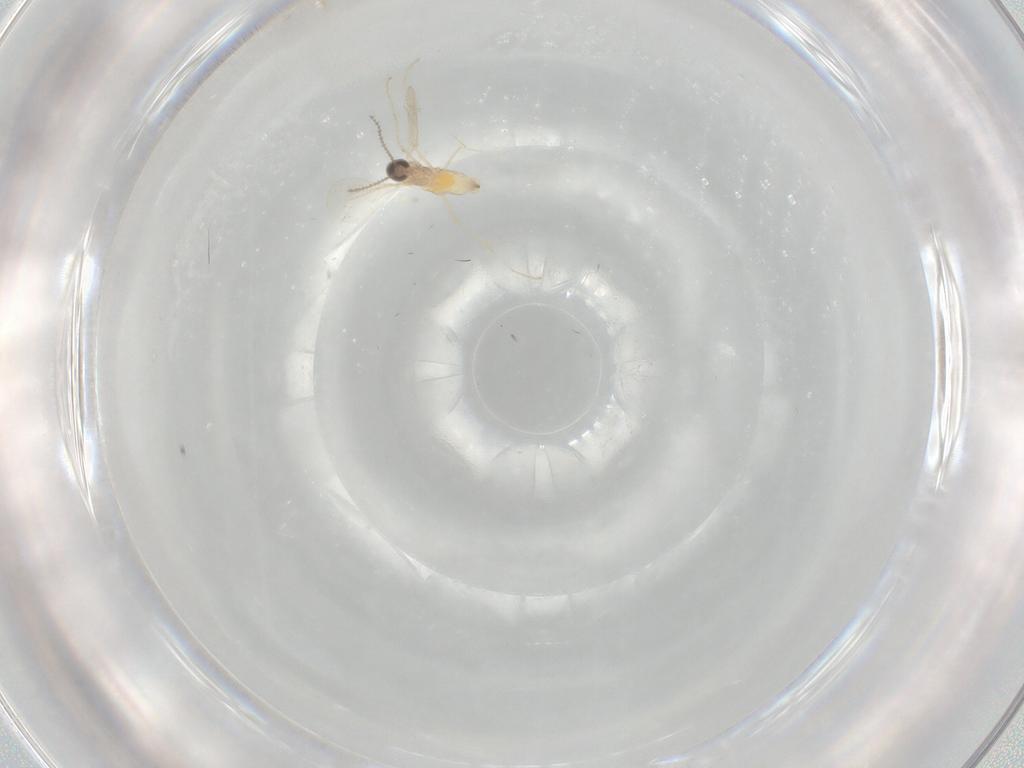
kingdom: Animalia
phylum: Arthropoda
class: Insecta
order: Diptera
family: Cecidomyiidae
